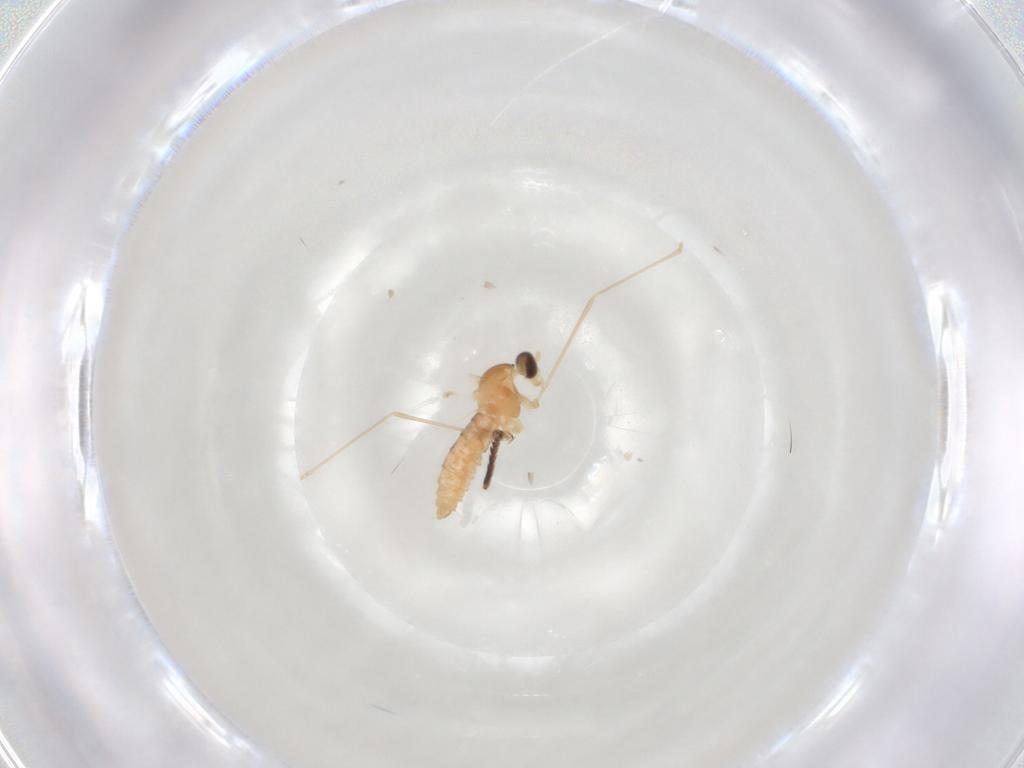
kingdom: Animalia
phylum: Arthropoda
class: Insecta
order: Diptera
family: Pipunculidae
